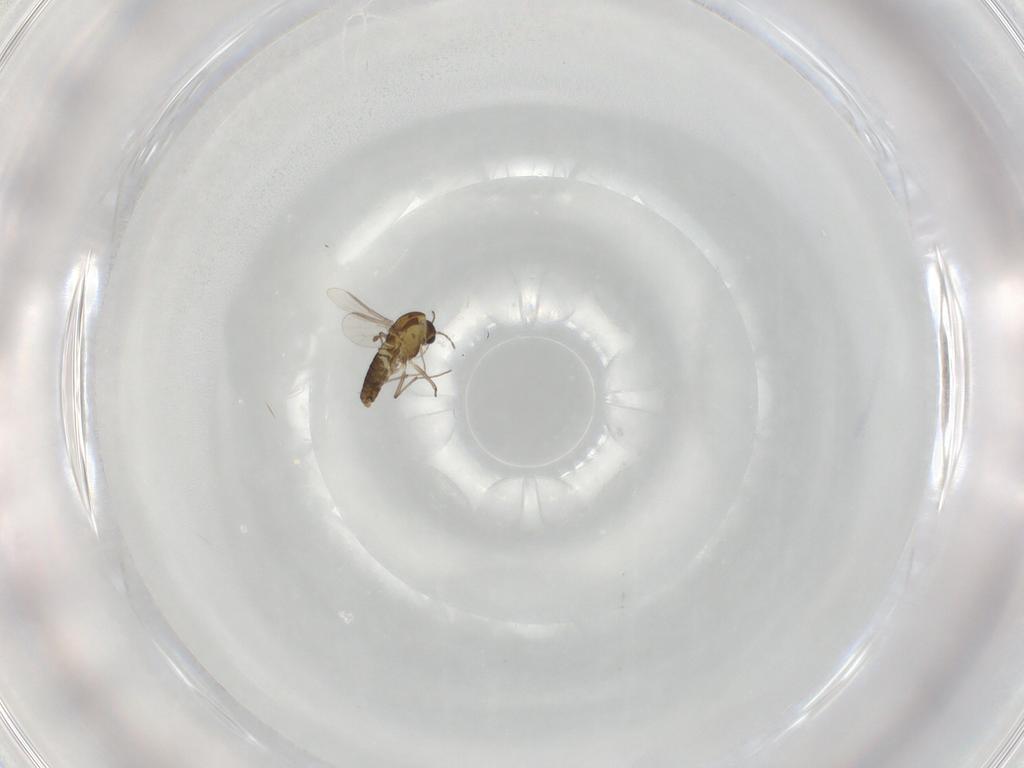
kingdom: Animalia
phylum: Arthropoda
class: Insecta
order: Diptera
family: Chironomidae
